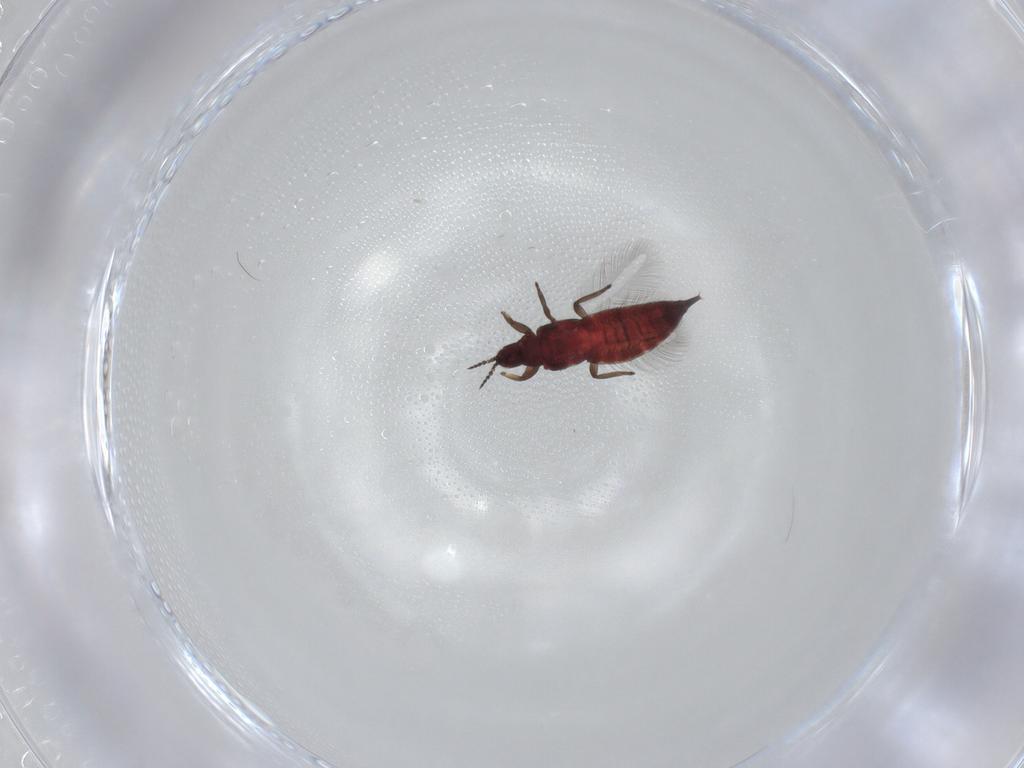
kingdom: Animalia
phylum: Arthropoda
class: Insecta
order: Thysanoptera
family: Phlaeothripidae
